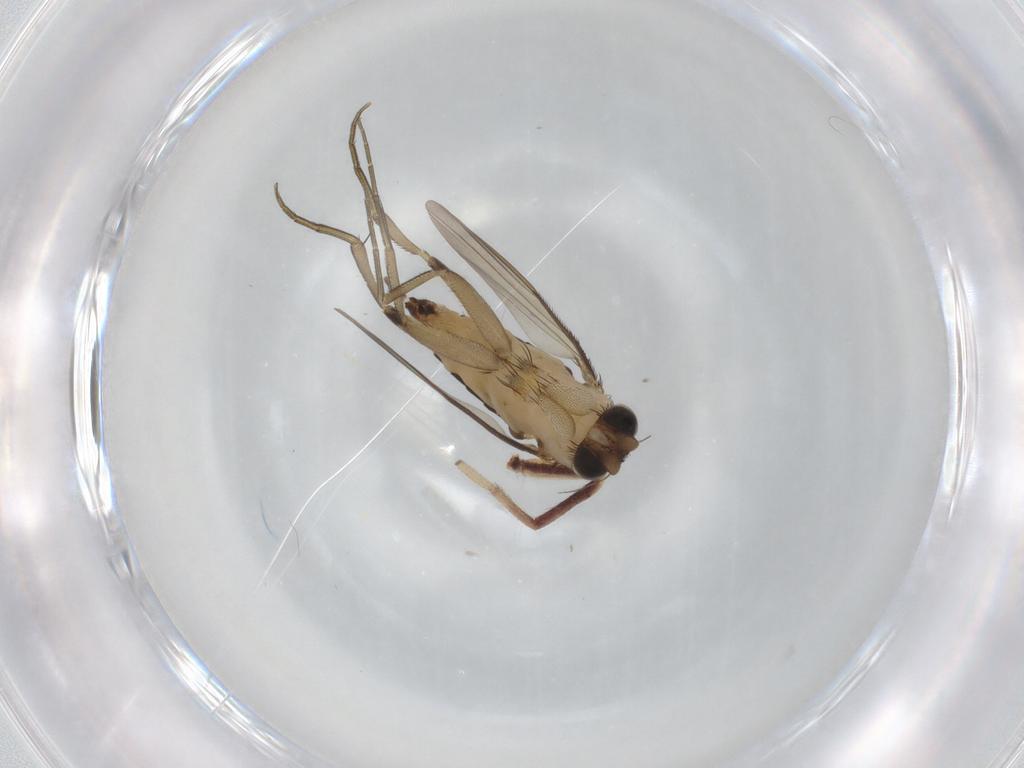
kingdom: Animalia
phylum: Arthropoda
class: Insecta
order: Diptera
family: Phoridae
